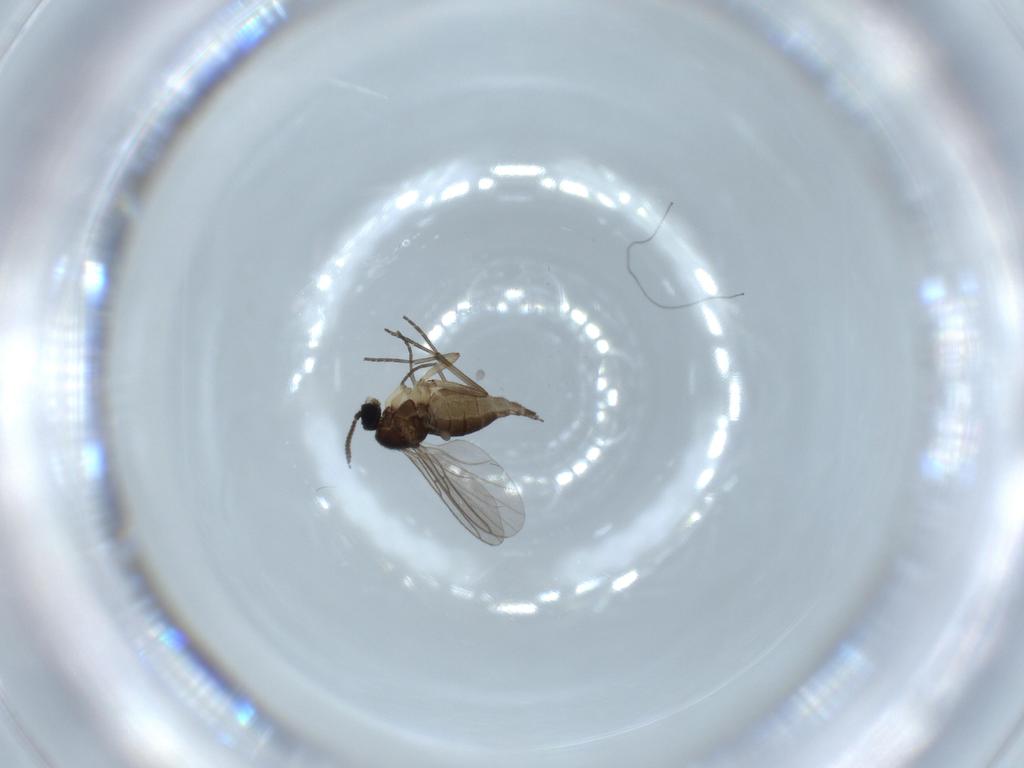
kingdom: Animalia
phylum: Arthropoda
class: Insecta
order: Diptera
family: Sciaridae
